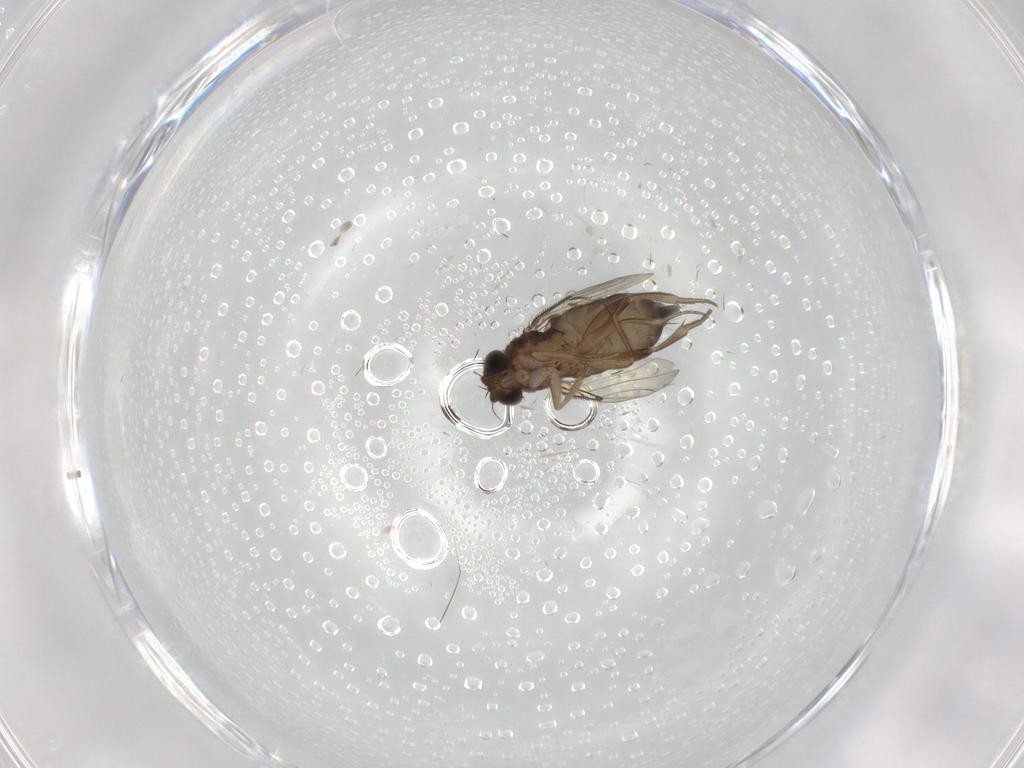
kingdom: Animalia
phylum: Arthropoda
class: Insecta
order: Diptera
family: Phoridae
